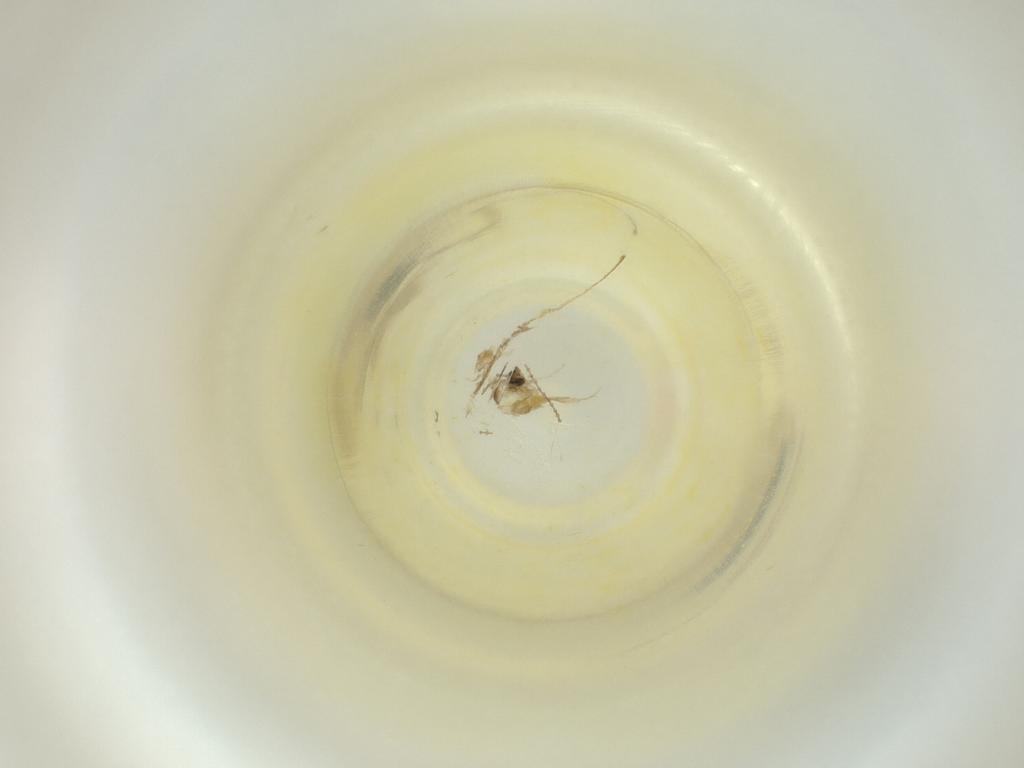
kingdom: Animalia
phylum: Arthropoda
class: Insecta
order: Diptera
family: Cecidomyiidae
